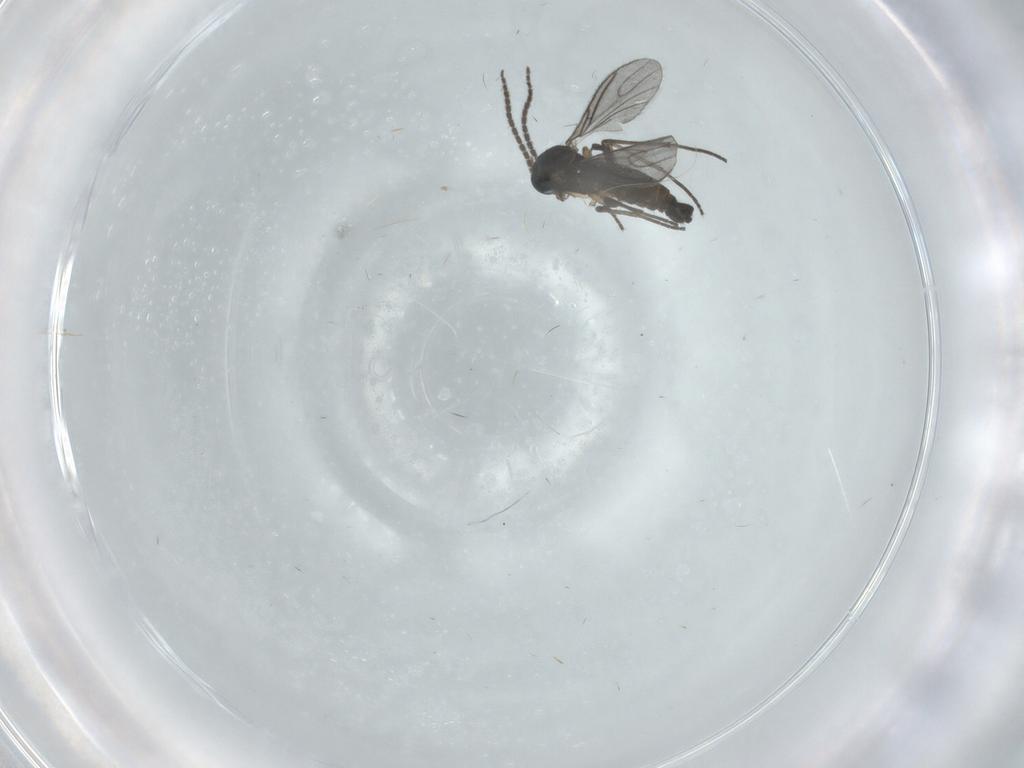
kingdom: Animalia
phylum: Arthropoda
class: Insecta
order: Diptera
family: Sciaridae
